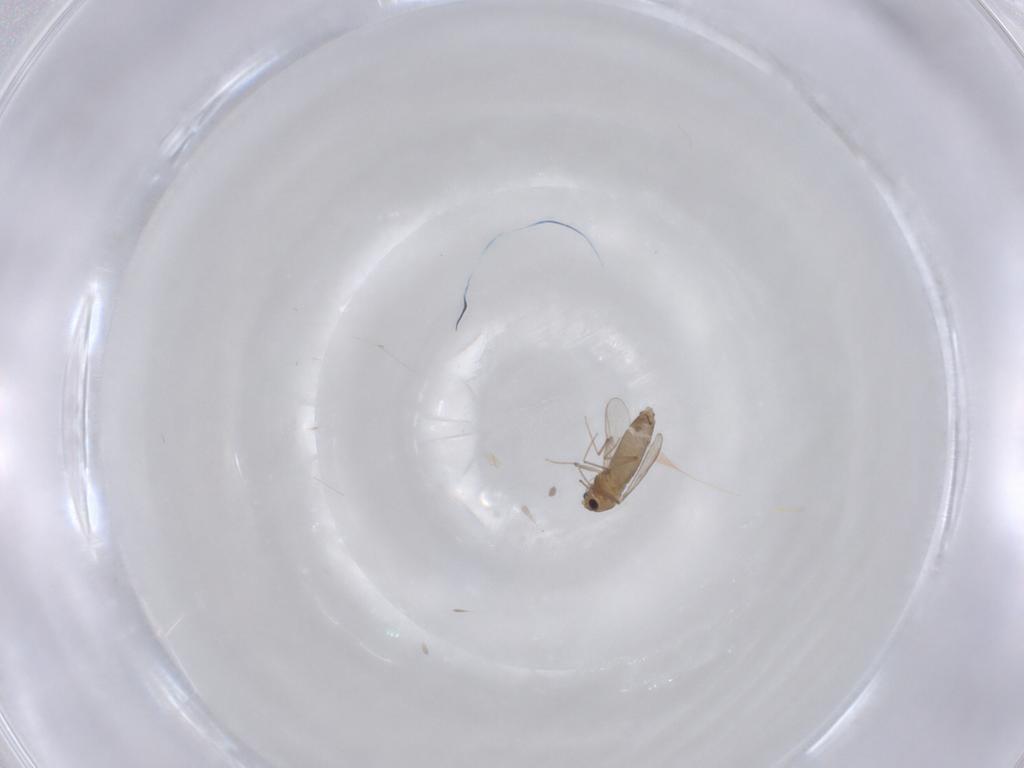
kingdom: Animalia
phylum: Arthropoda
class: Insecta
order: Diptera
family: Chironomidae
